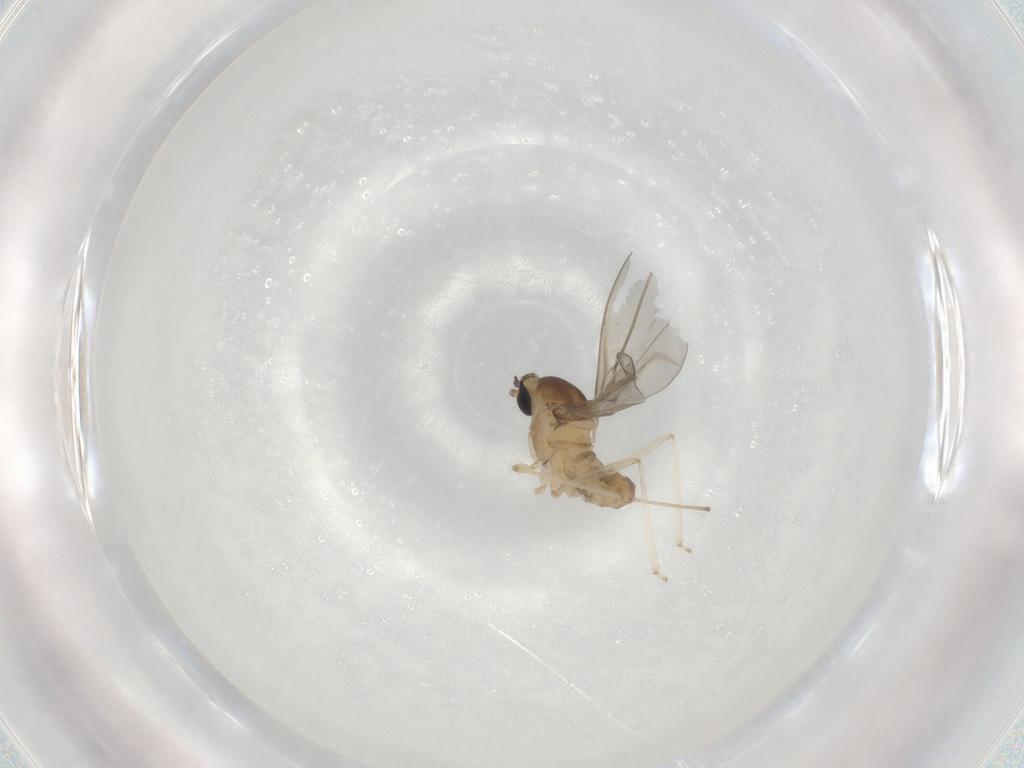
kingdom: Animalia
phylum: Arthropoda
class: Insecta
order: Diptera
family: Cecidomyiidae
